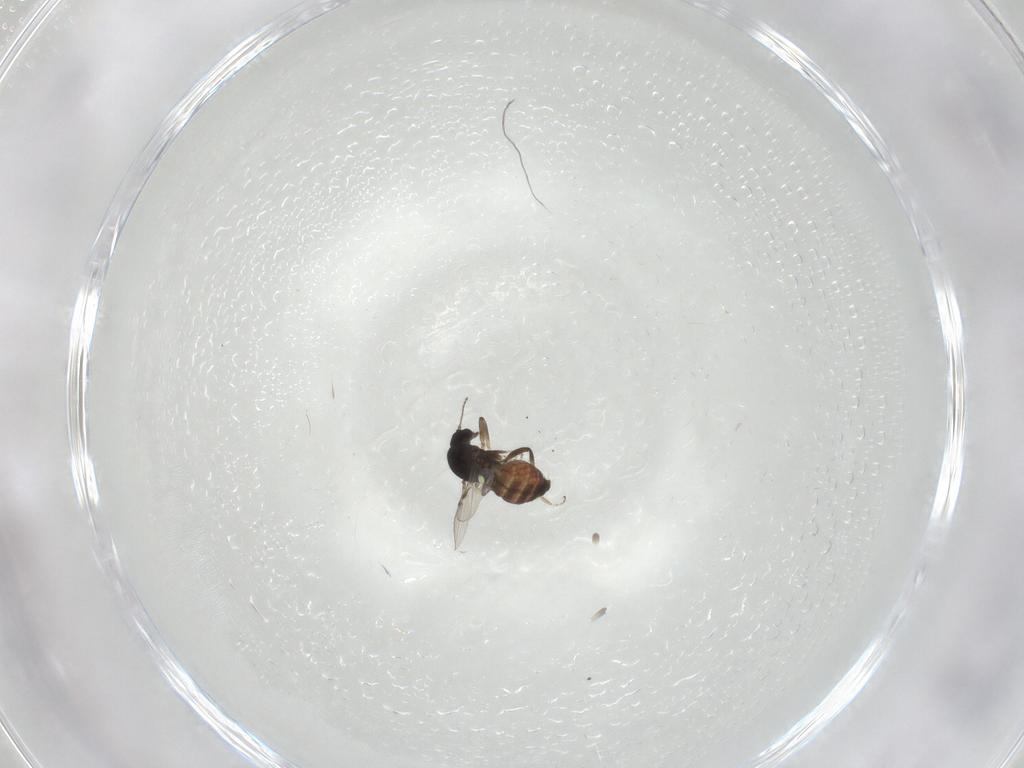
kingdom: Animalia
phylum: Arthropoda
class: Insecta
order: Diptera
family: Ceratopogonidae
